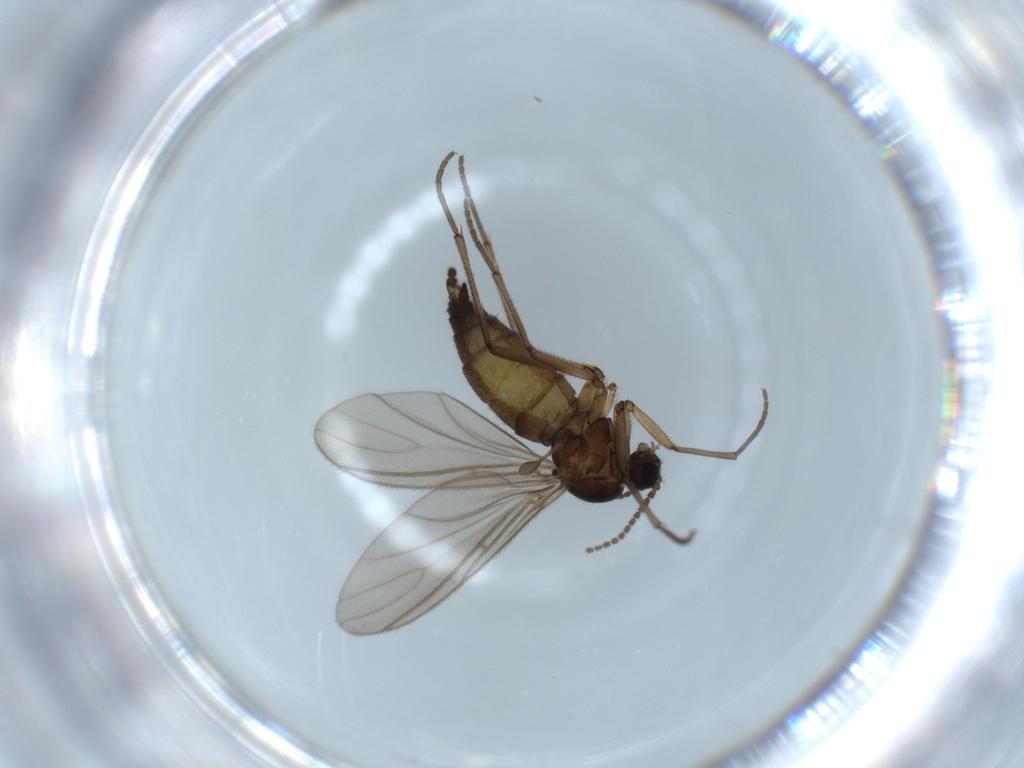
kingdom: Animalia
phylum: Arthropoda
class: Insecta
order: Diptera
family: Sciaridae
